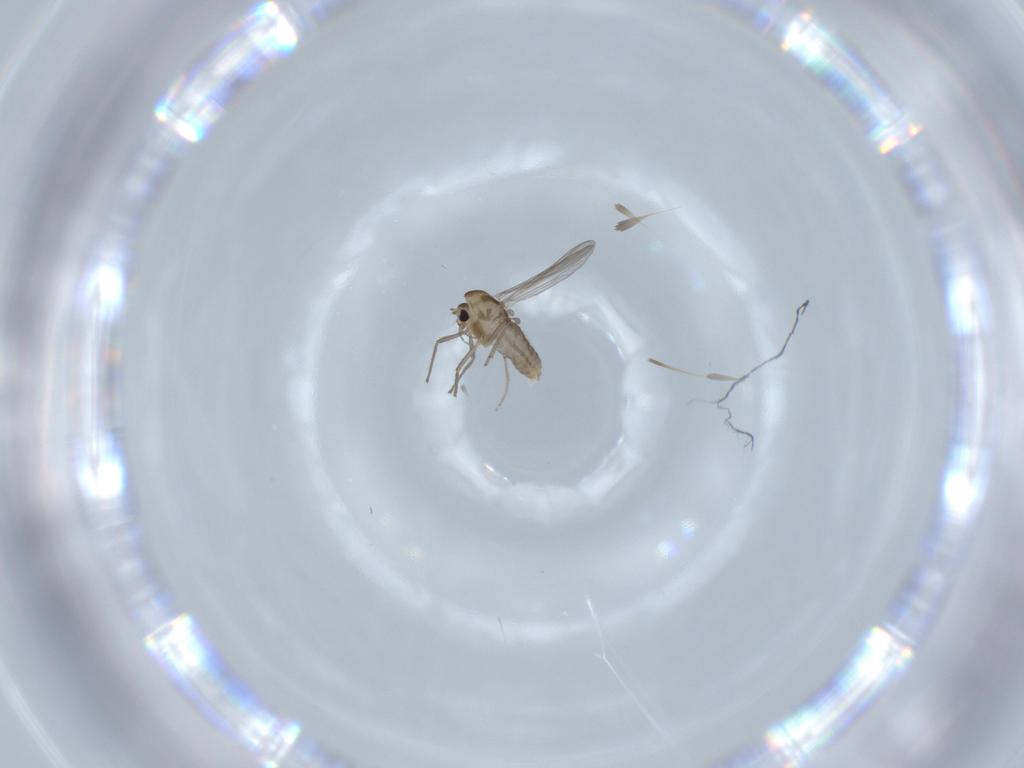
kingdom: Animalia
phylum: Arthropoda
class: Insecta
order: Diptera
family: Chironomidae
